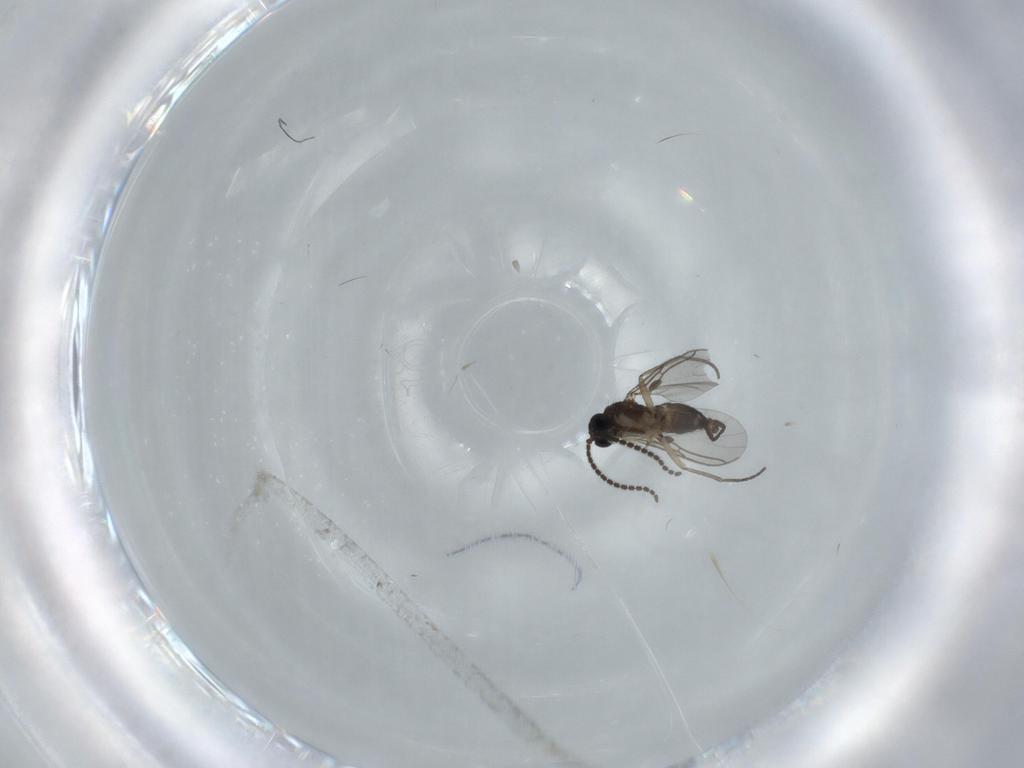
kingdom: Animalia
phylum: Arthropoda
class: Insecta
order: Diptera
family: Sciaridae
